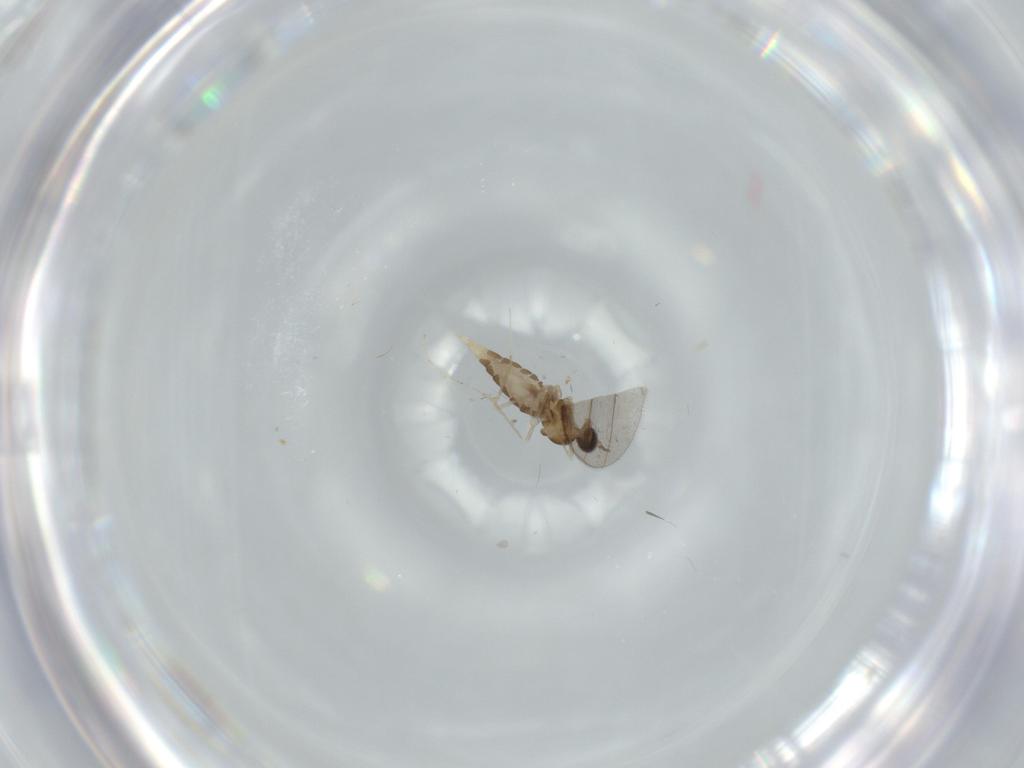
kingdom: Animalia
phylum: Arthropoda
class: Insecta
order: Diptera
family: Cecidomyiidae
